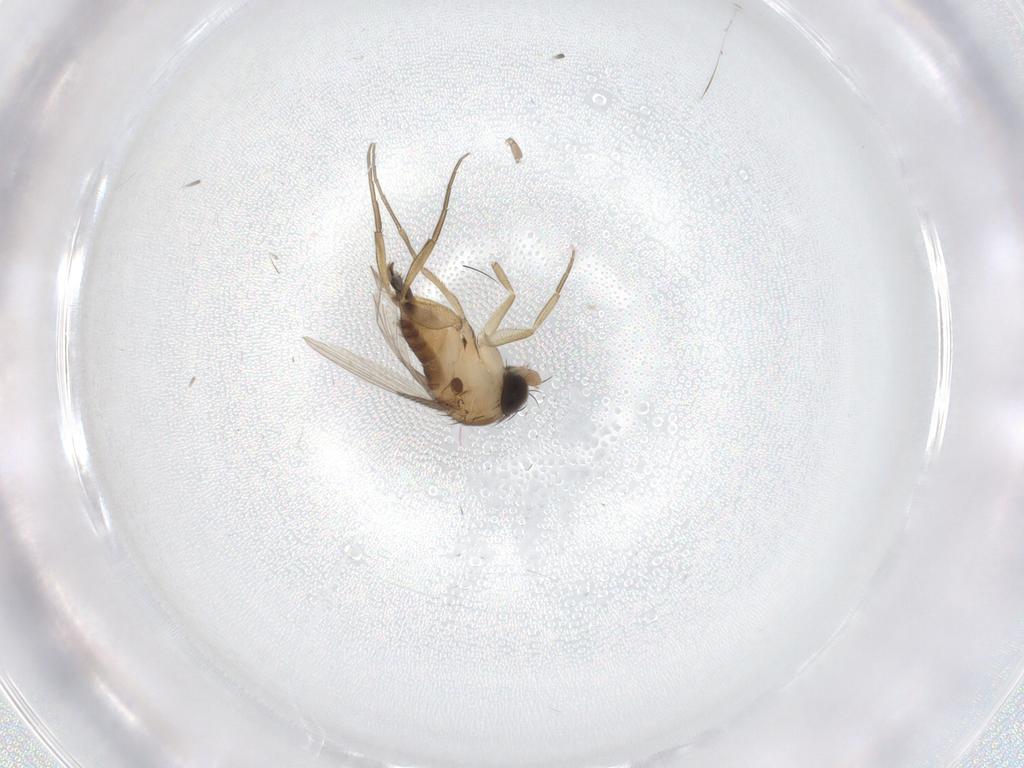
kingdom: Animalia
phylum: Arthropoda
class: Insecta
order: Diptera
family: Phoridae
